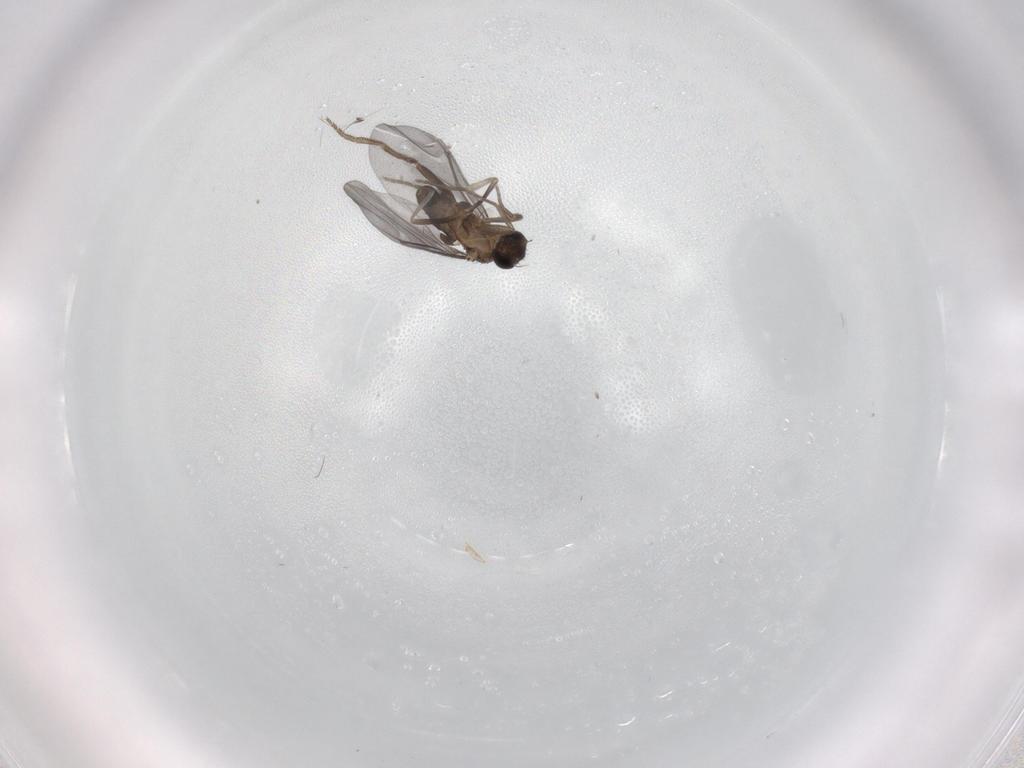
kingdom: Animalia
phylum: Arthropoda
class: Insecta
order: Diptera
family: Phoridae
